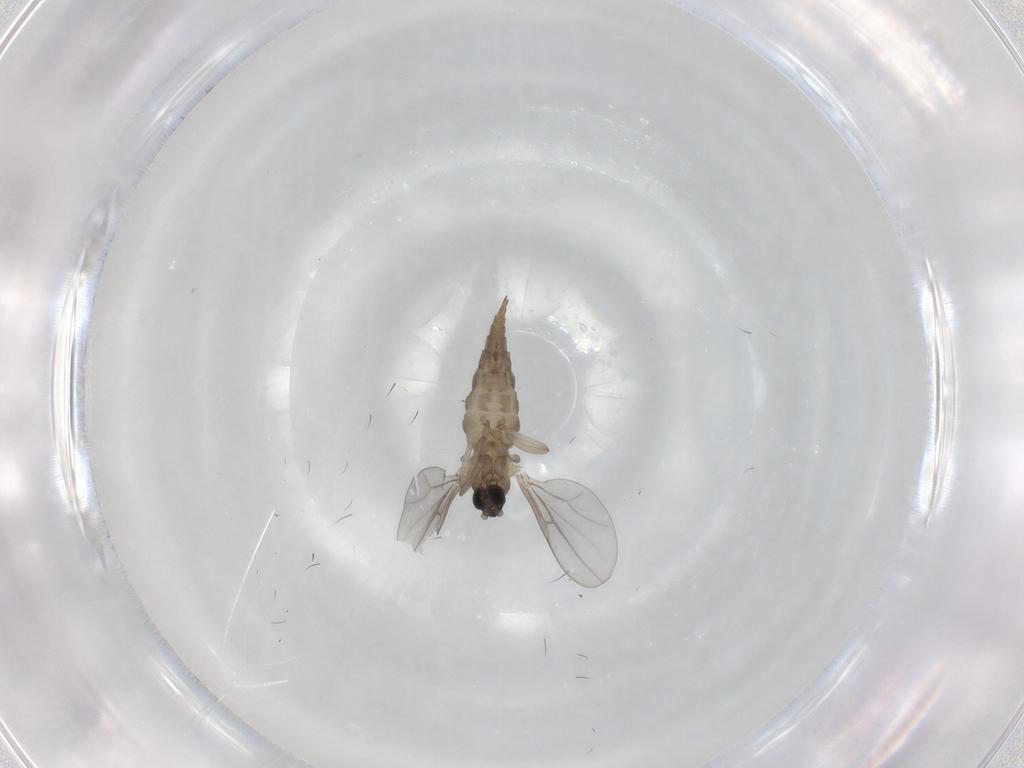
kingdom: Animalia
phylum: Arthropoda
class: Insecta
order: Diptera
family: Cecidomyiidae
